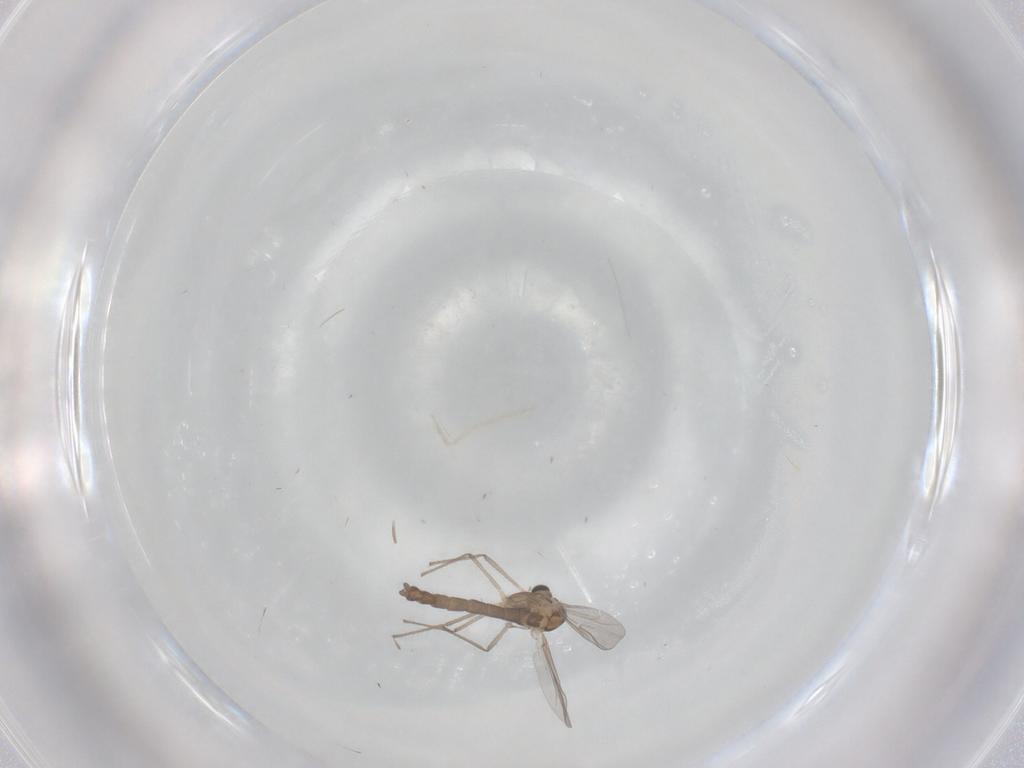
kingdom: Animalia
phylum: Arthropoda
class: Insecta
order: Diptera
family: Chironomidae
